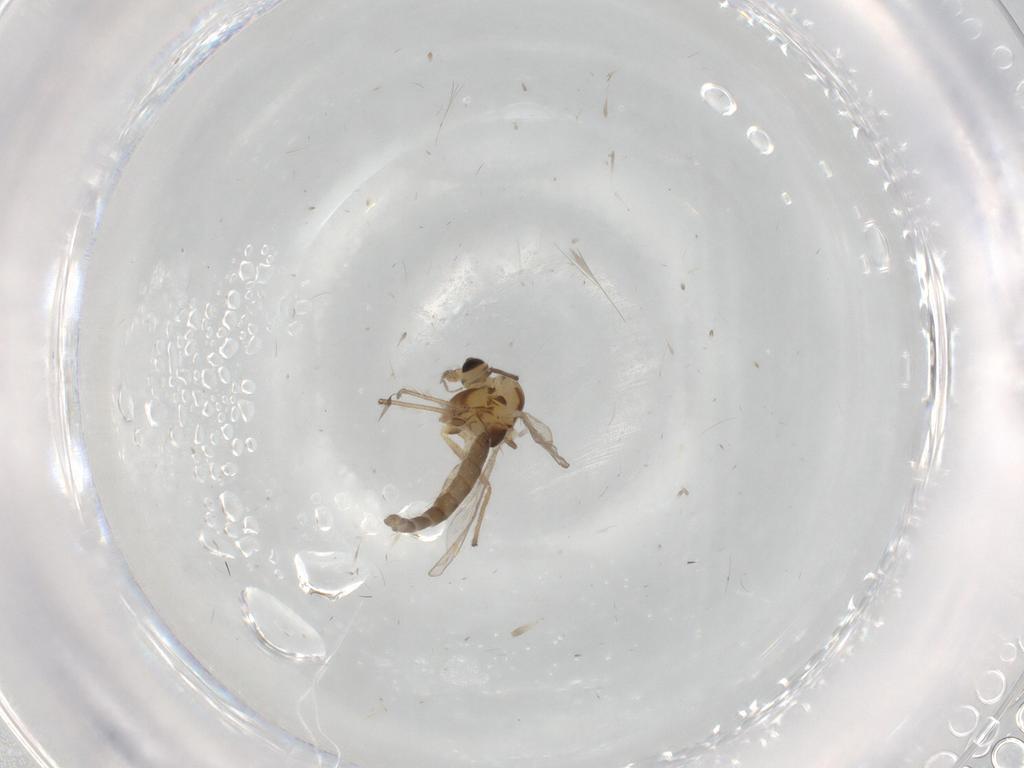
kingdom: Animalia
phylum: Arthropoda
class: Insecta
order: Diptera
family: Chironomidae
